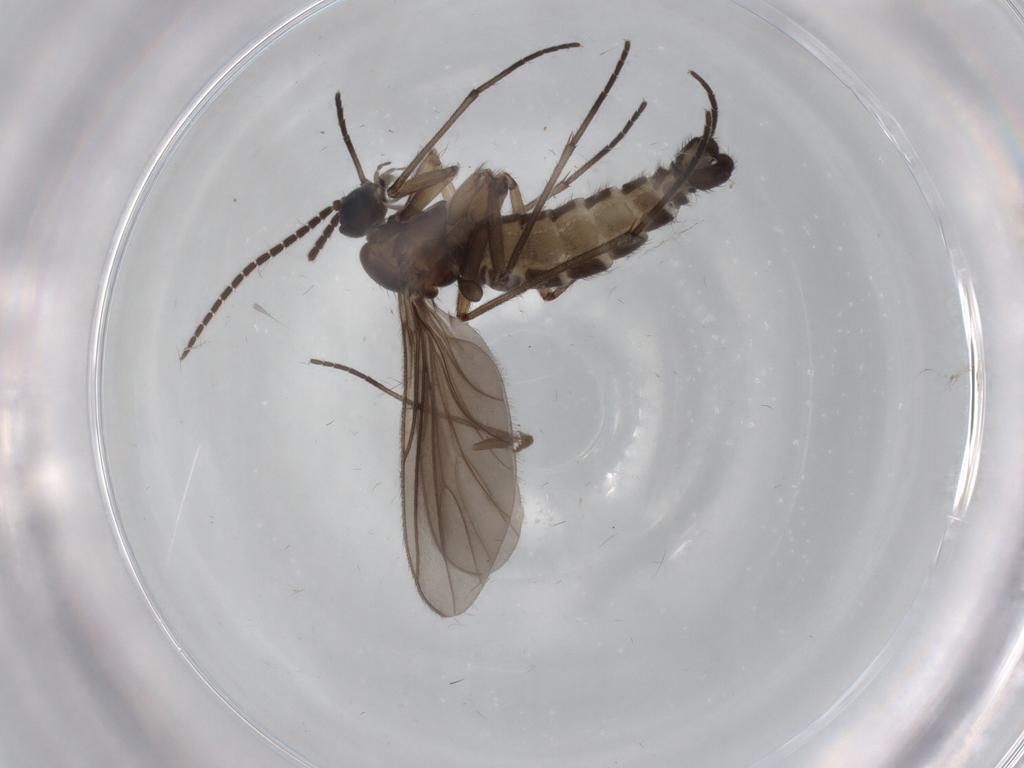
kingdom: Animalia
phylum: Arthropoda
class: Insecta
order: Diptera
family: Sciaridae
